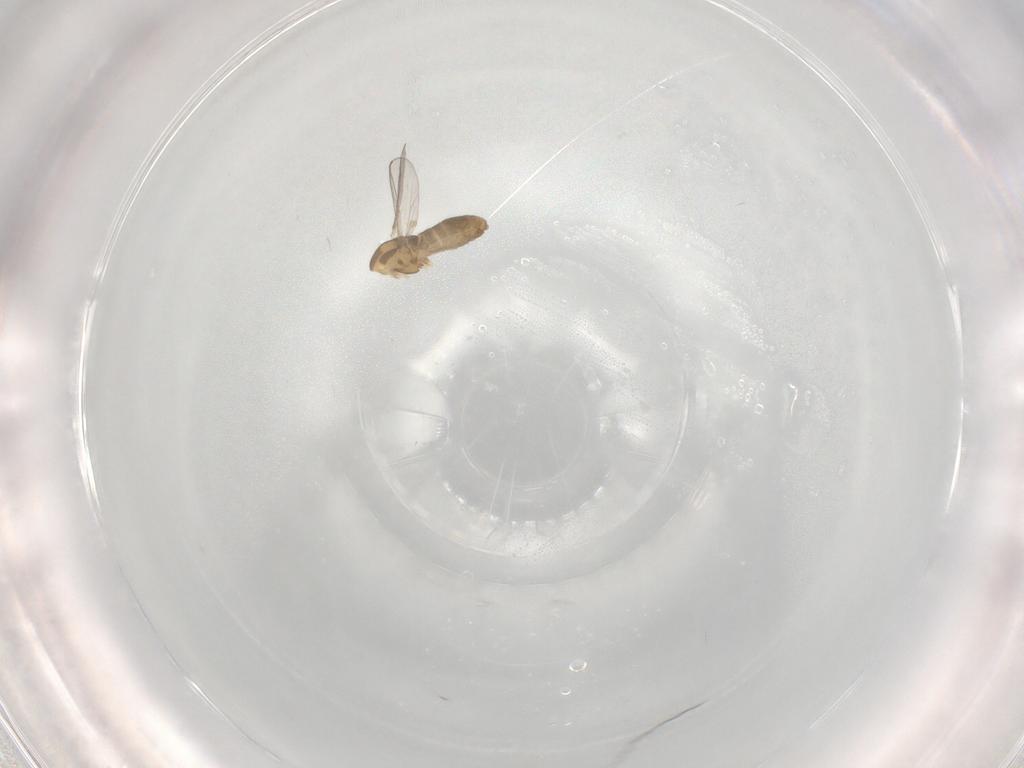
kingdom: Animalia
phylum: Arthropoda
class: Insecta
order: Diptera
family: Chironomidae
